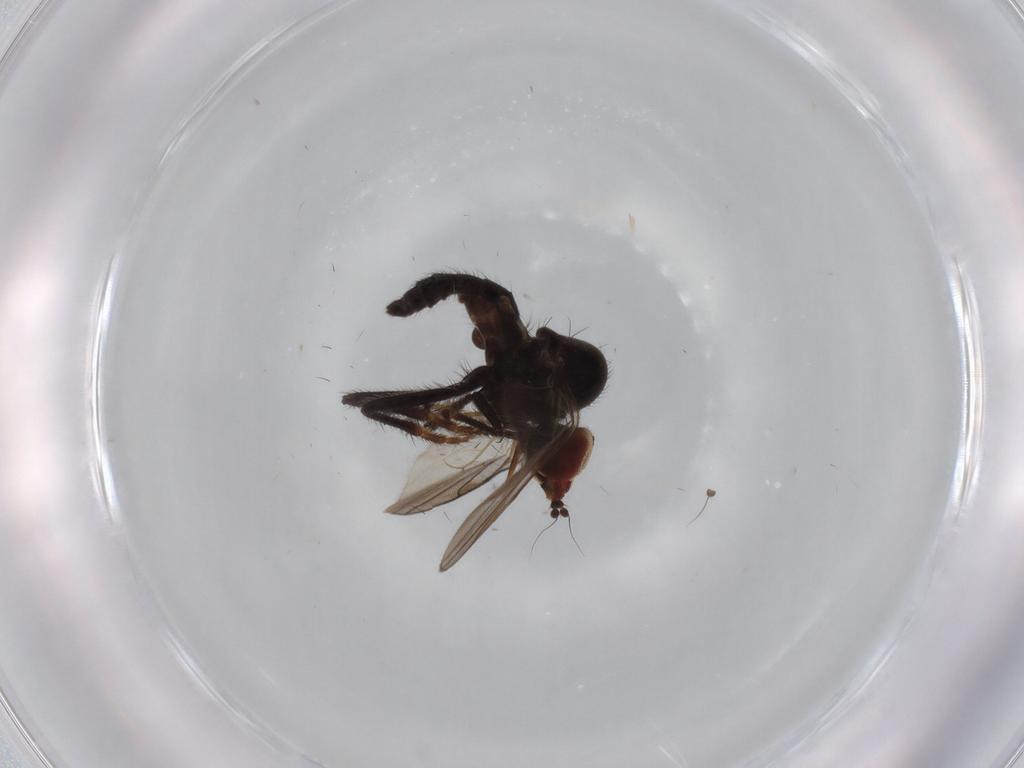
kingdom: Animalia
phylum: Arthropoda
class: Insecta
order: Diptera
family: Hybotidae
